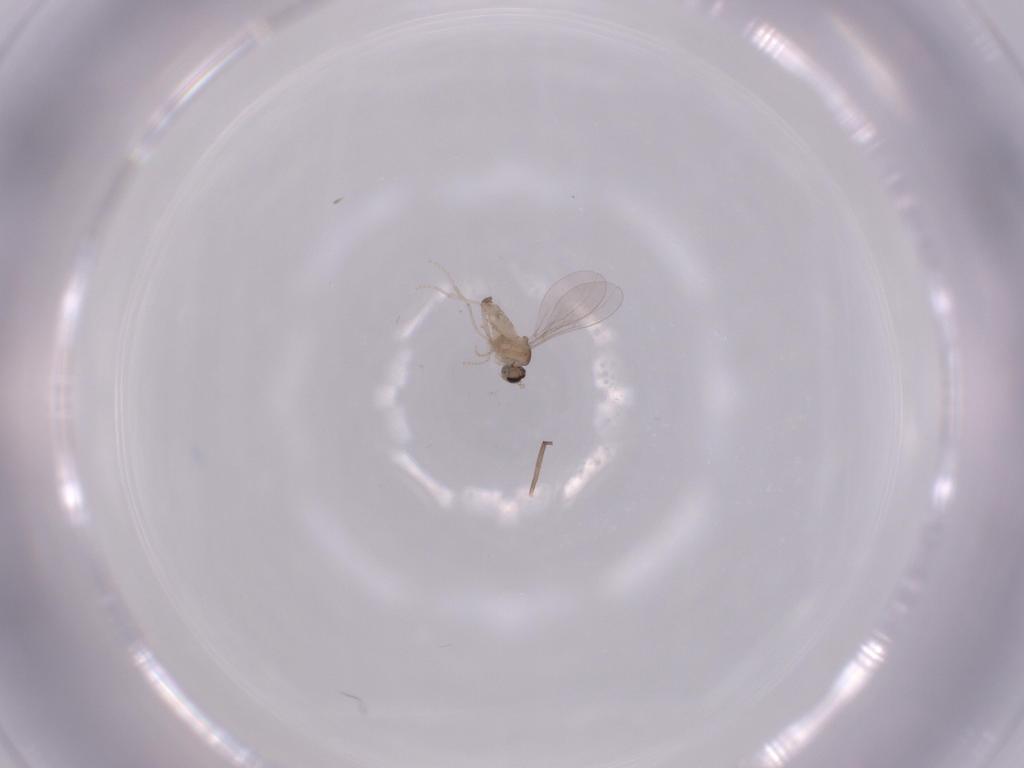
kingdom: Animalia
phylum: Arthropoda
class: Insecta
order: Diptera
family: Cecidomyiidae
